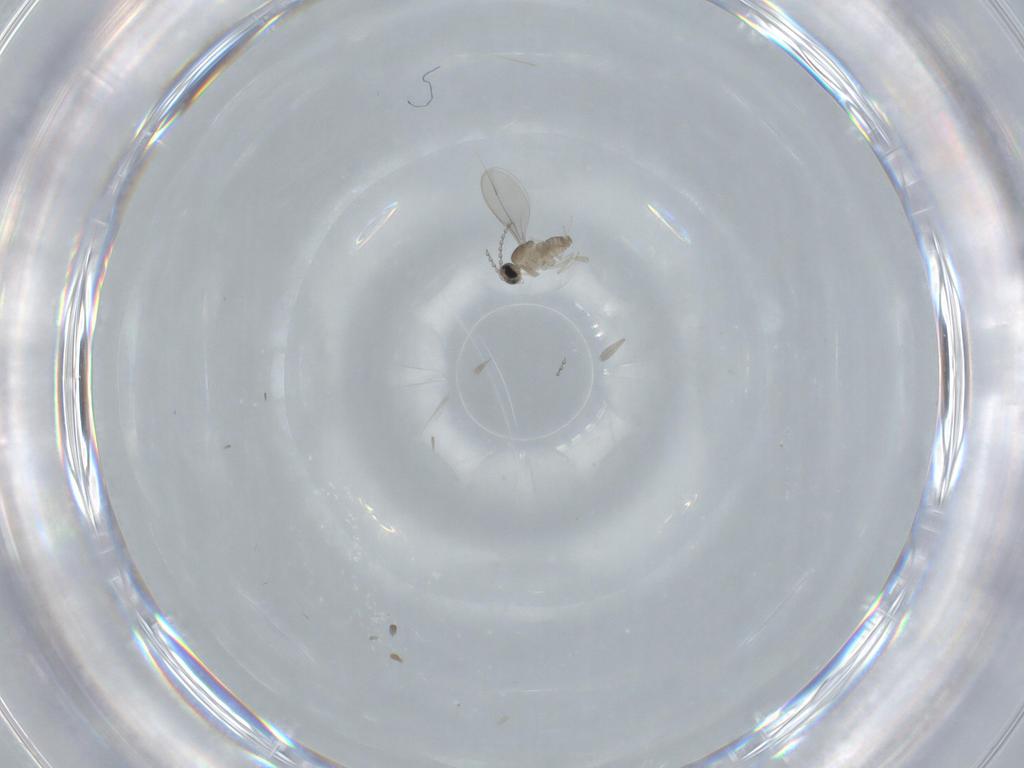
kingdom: Animalia
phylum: Arthropoda
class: Insecta
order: Diptera
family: Cecidomyiidae
